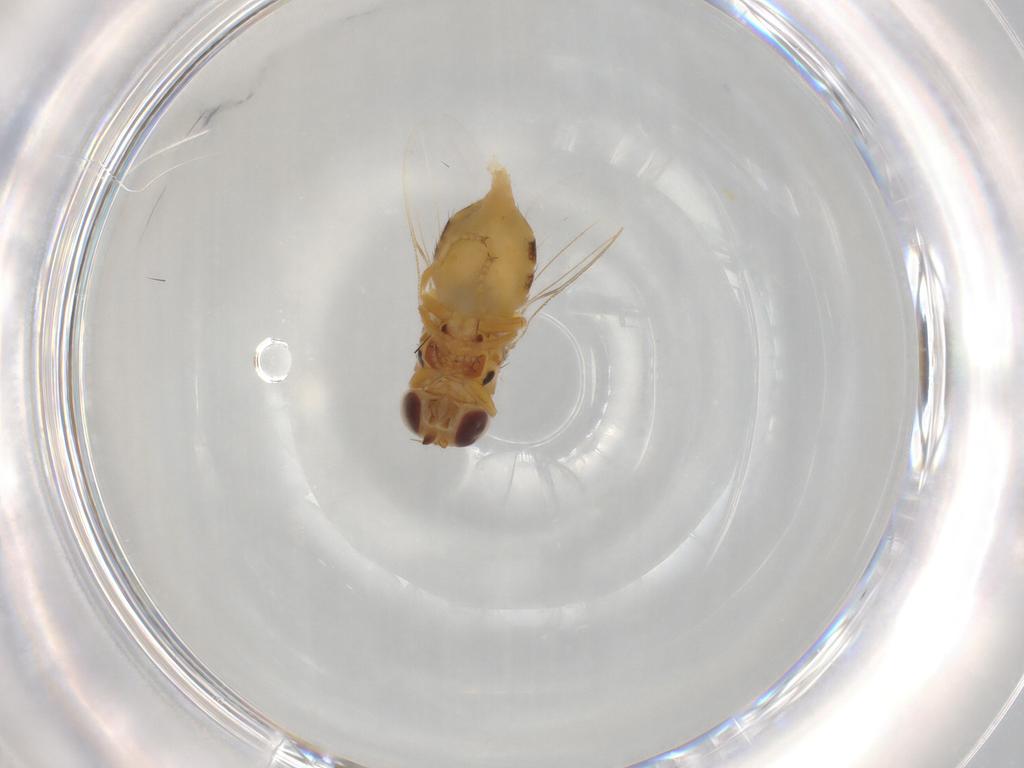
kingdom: Animalia
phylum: Arthropoda
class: Insecta
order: Diptera
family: Chloropidae
